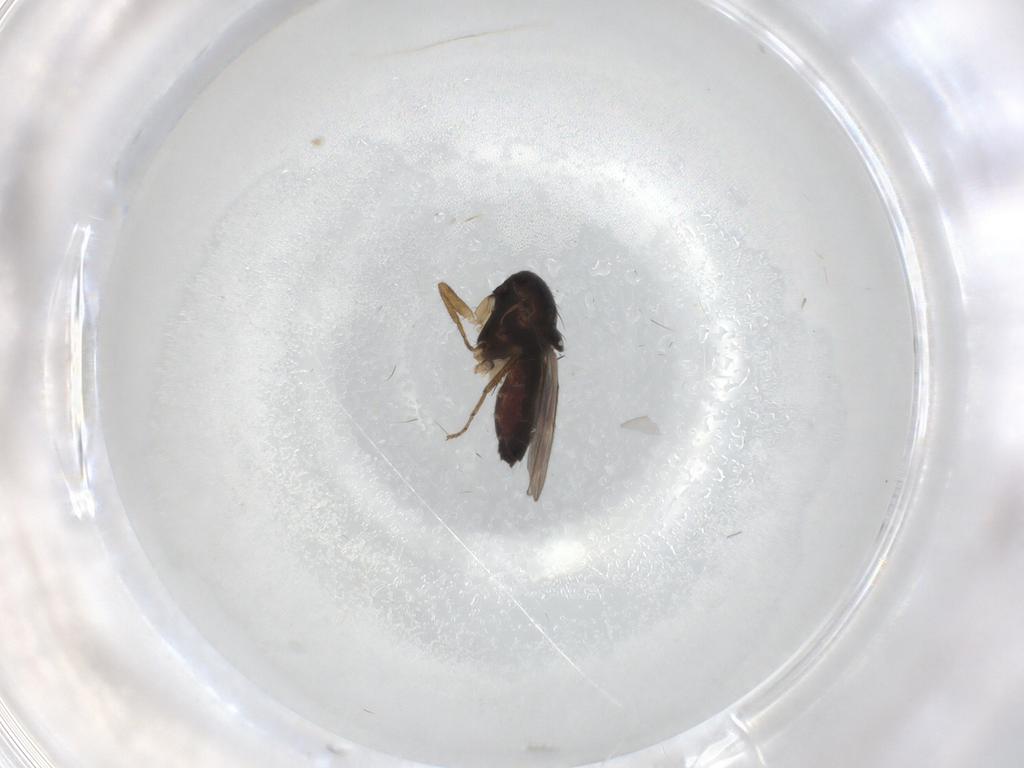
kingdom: Animalia
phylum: Arthropoda
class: Insecta
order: Diptera
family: Sphaeroceridae
